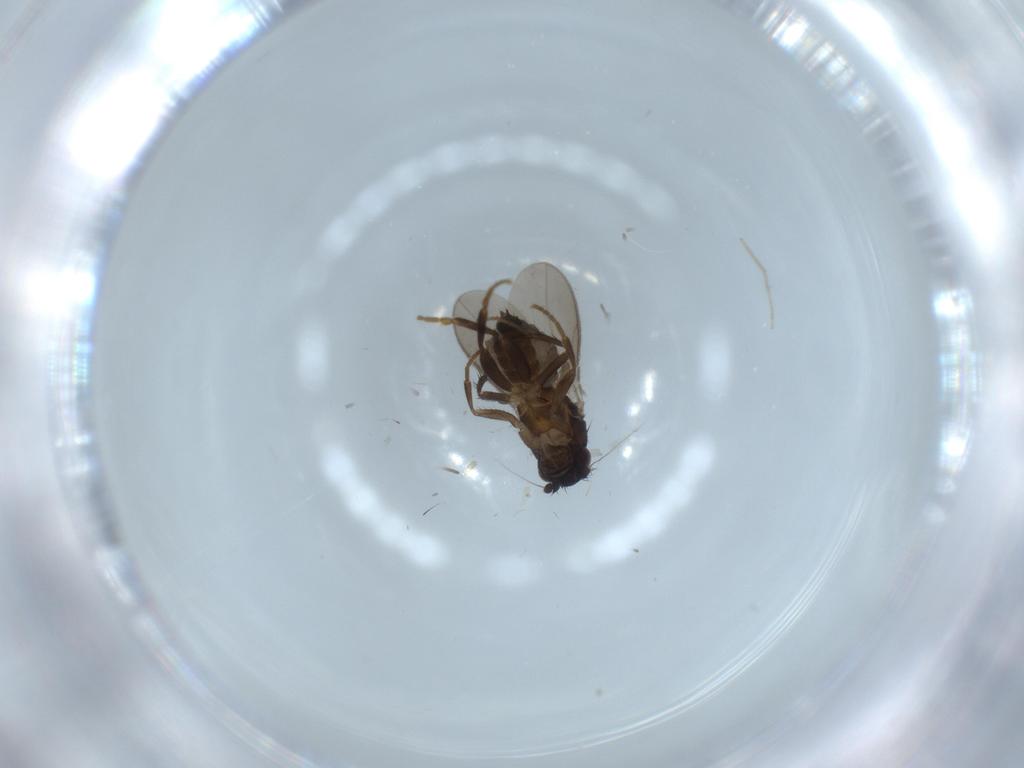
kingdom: Animalia
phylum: Arthropoda
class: Insecta
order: Diptera
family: Sphaeroceridae
